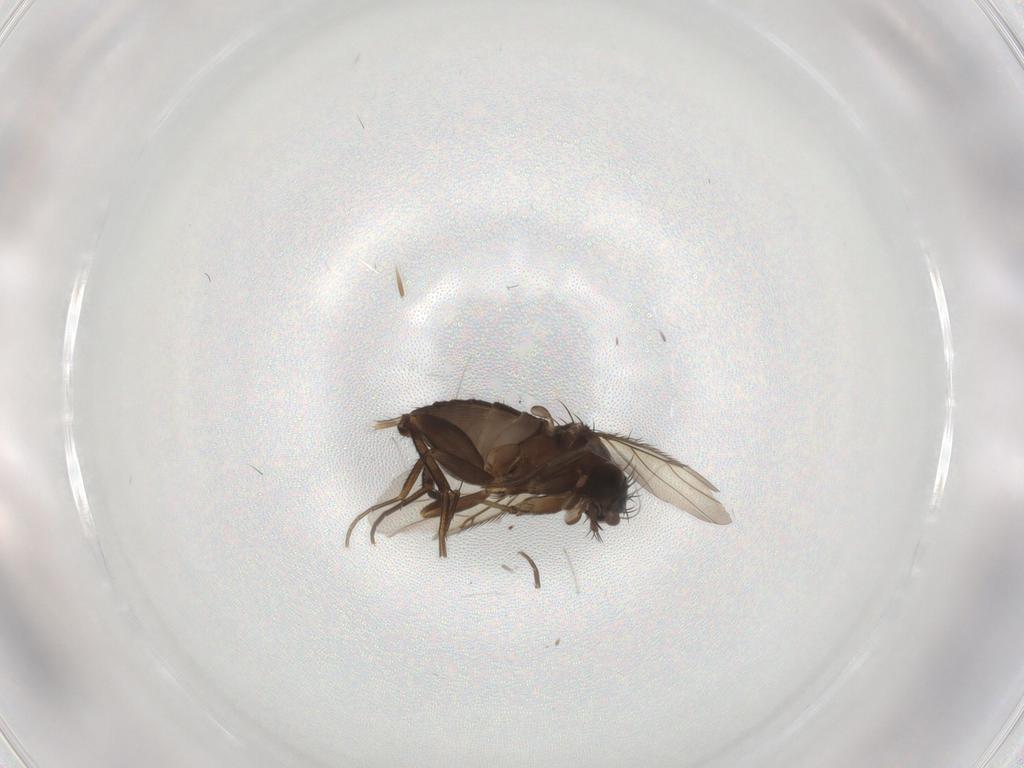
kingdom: Animalia
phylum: Arthropoda
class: Insecta
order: Diptera
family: Phoridae
